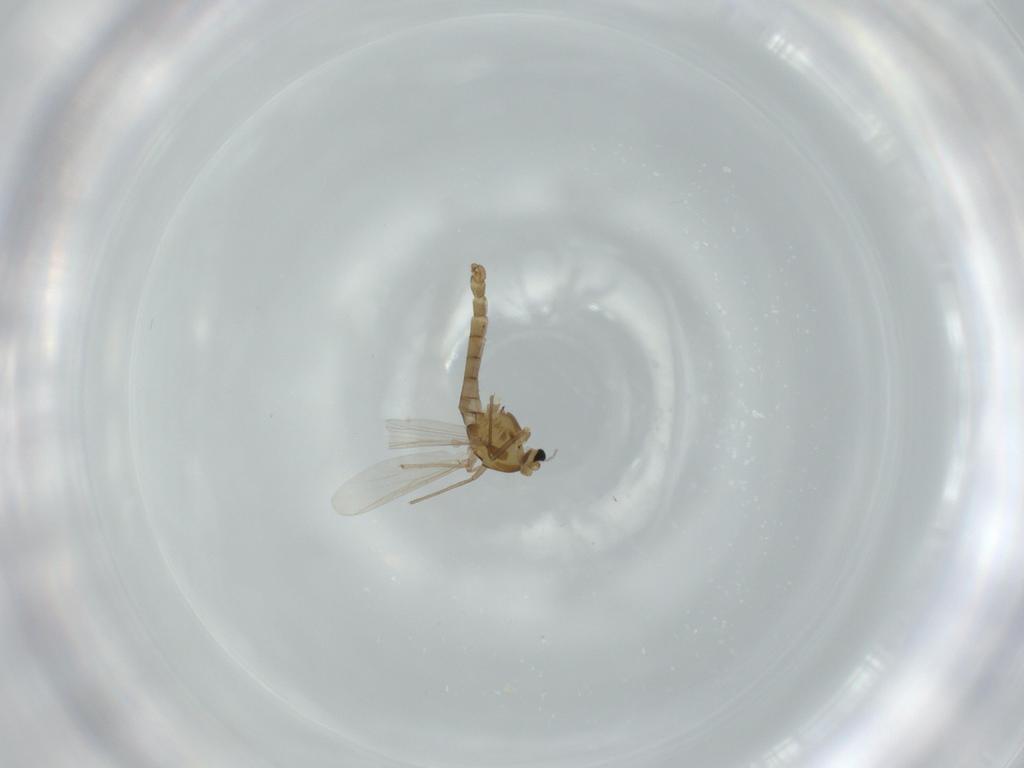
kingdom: Animalia
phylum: Arthropoda
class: Insecta
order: Diptera
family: Chironomidae
